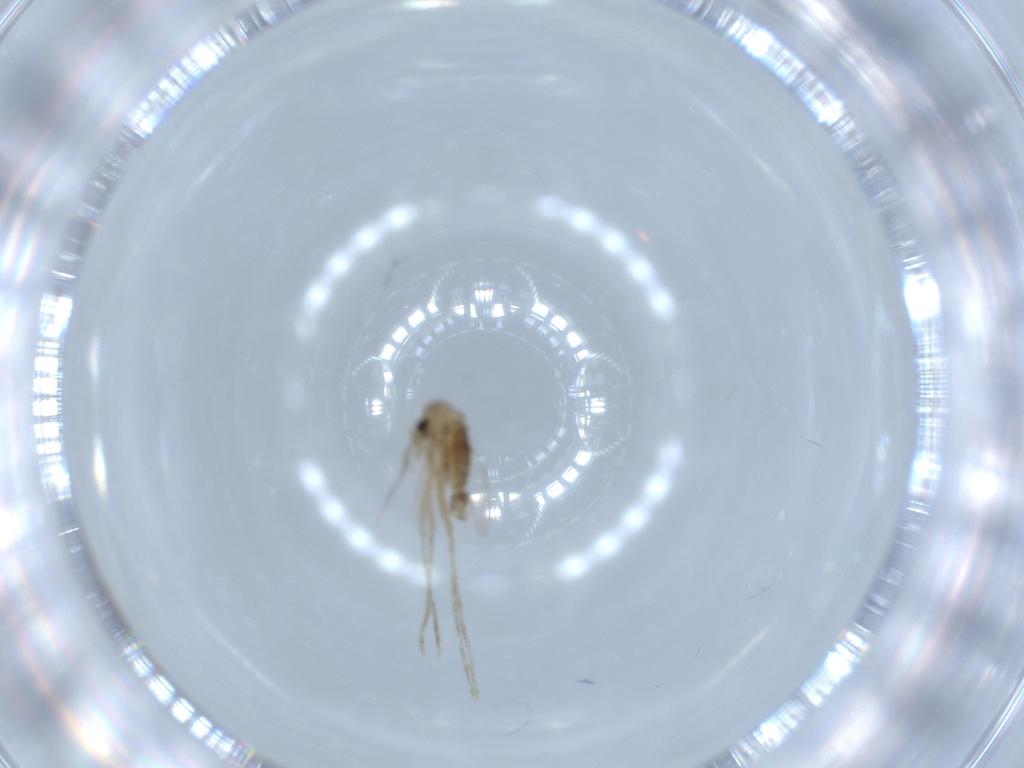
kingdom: Animalia
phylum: Arthropoda
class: Insecta
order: Diptera
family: Psychodidae
